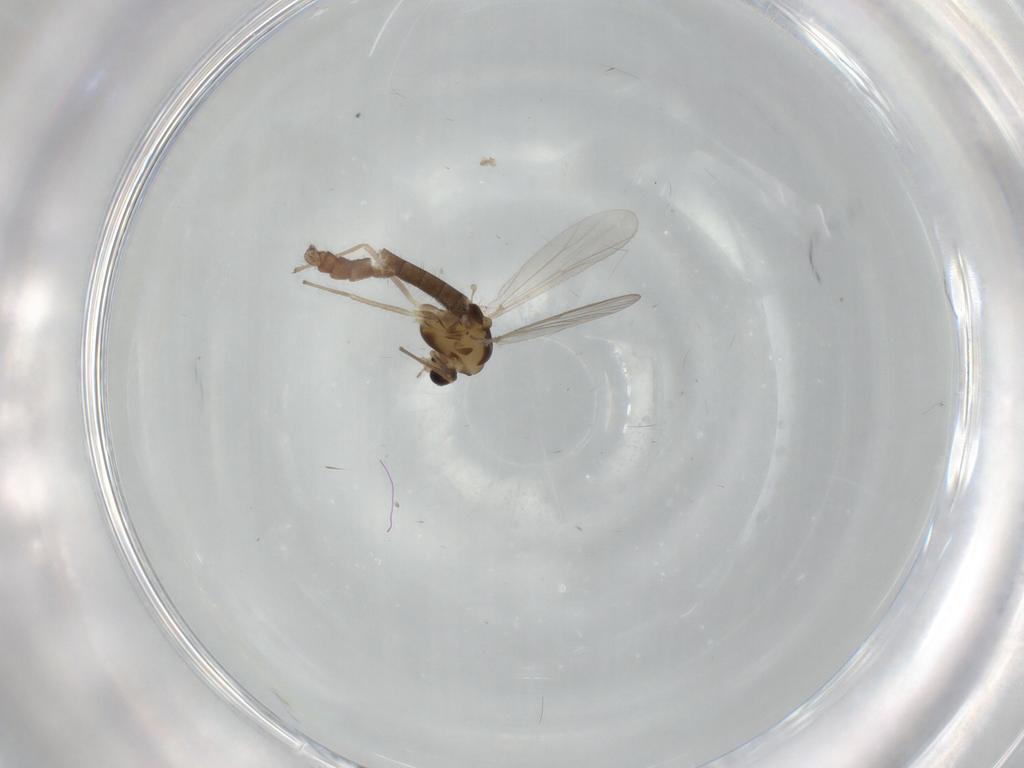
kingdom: Animalia
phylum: Arthropoda
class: Insecta
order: Diptera
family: Chironomidae
